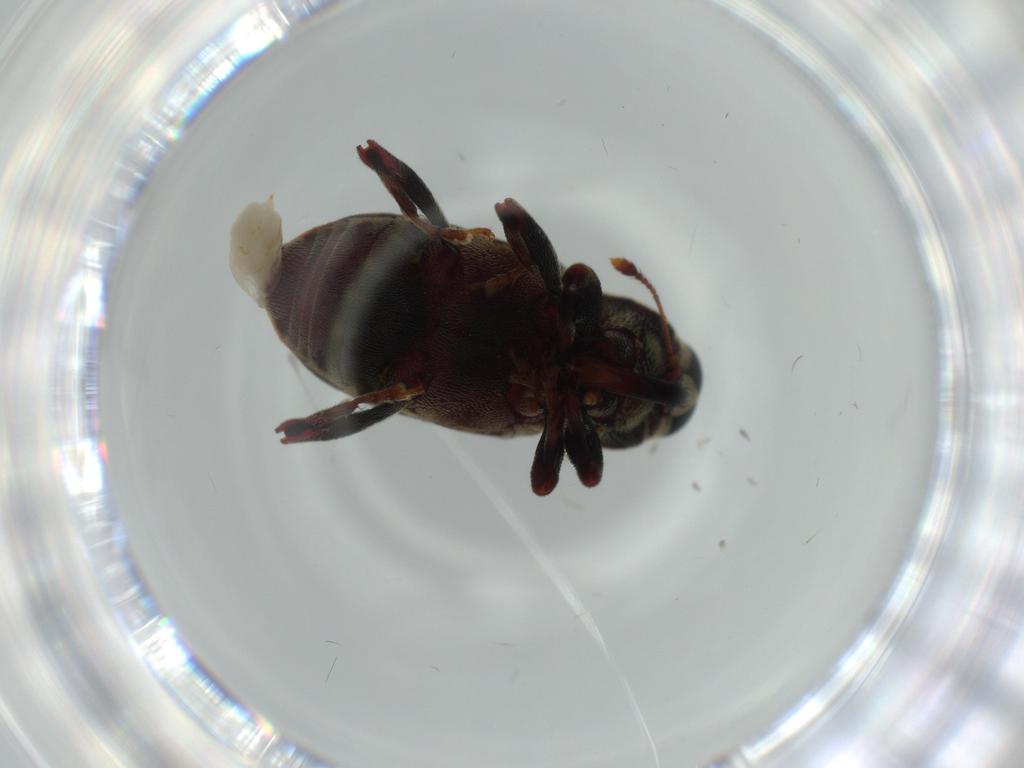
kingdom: Animalia
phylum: Arthropoda
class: Insecta
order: Coleoptera
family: Curculionidae
